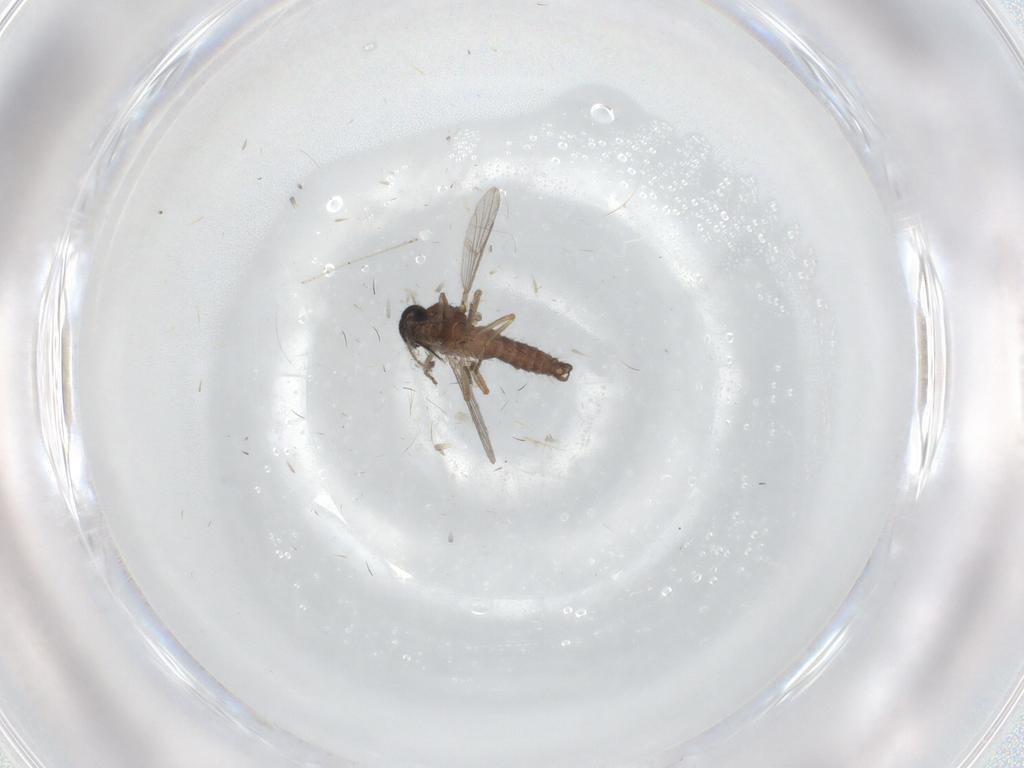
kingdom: Animalia
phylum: Arthropoda
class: Insecta
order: Diptera
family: Ceratopogonidae
